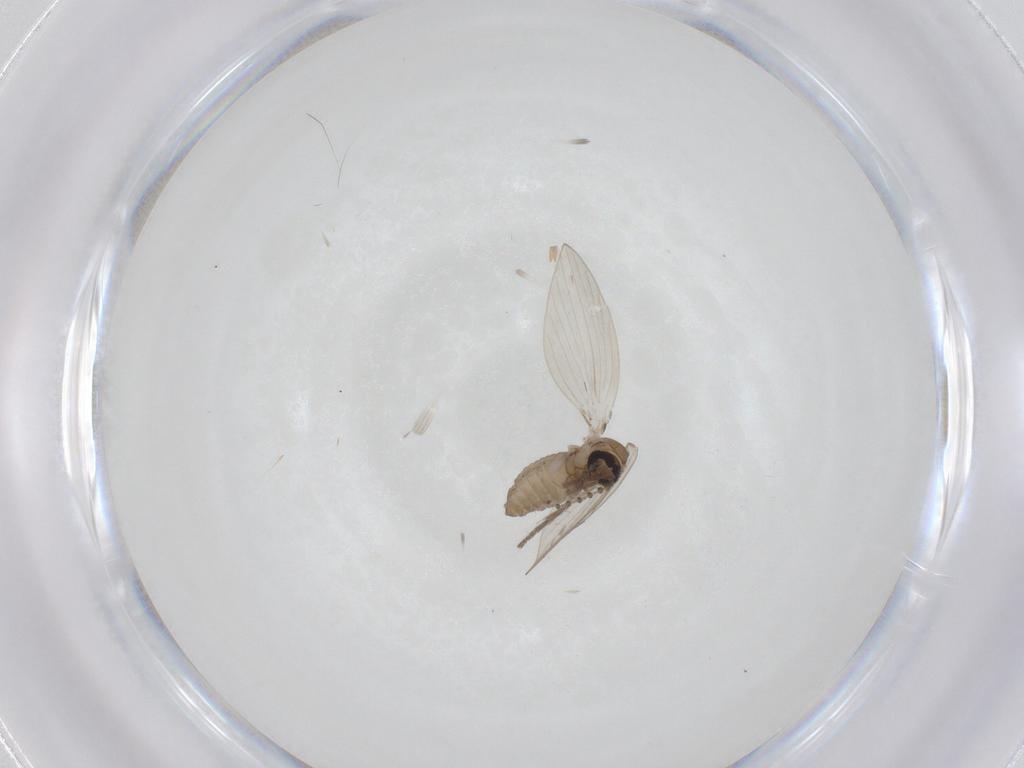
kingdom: Animalia
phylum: Arthropoda
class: Insecta
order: Diptera
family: Psychodidae
